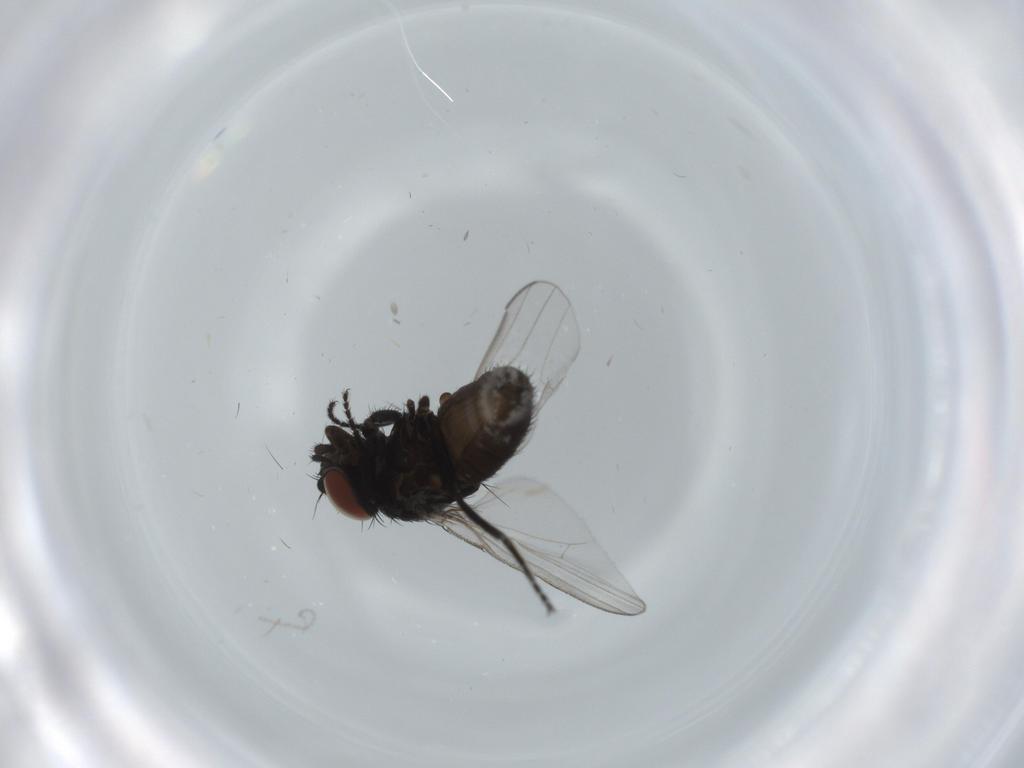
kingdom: Animalia
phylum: Arthropoda
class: Insecta
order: Diptera
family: Milichiidae
